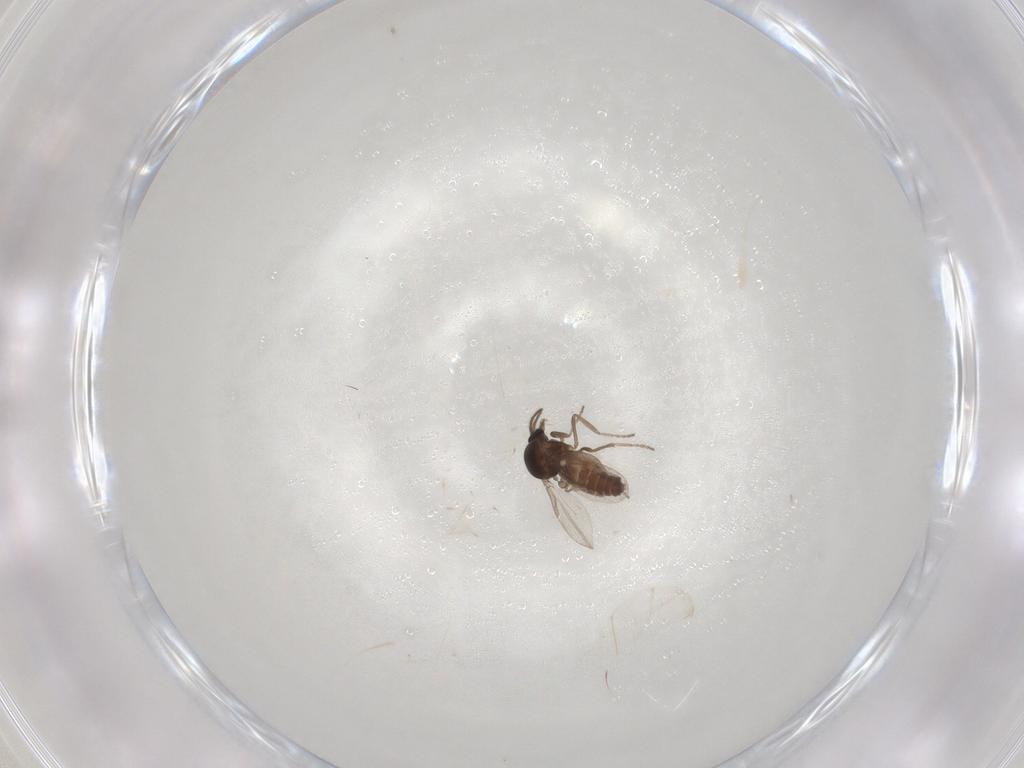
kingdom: Animalia
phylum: Arthropoda
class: Insecta
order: Diptera
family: Ceratopogonidae
